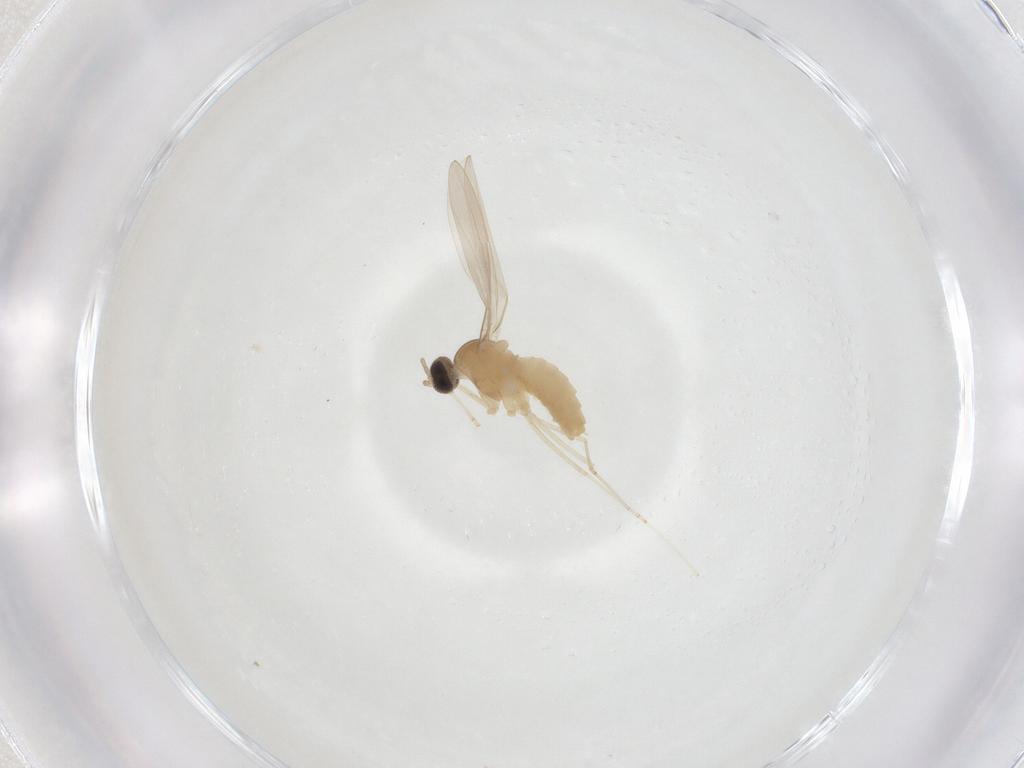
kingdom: Animalia
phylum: Arthropoda
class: Insecta
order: Diptera
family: Cecidomyiidae
